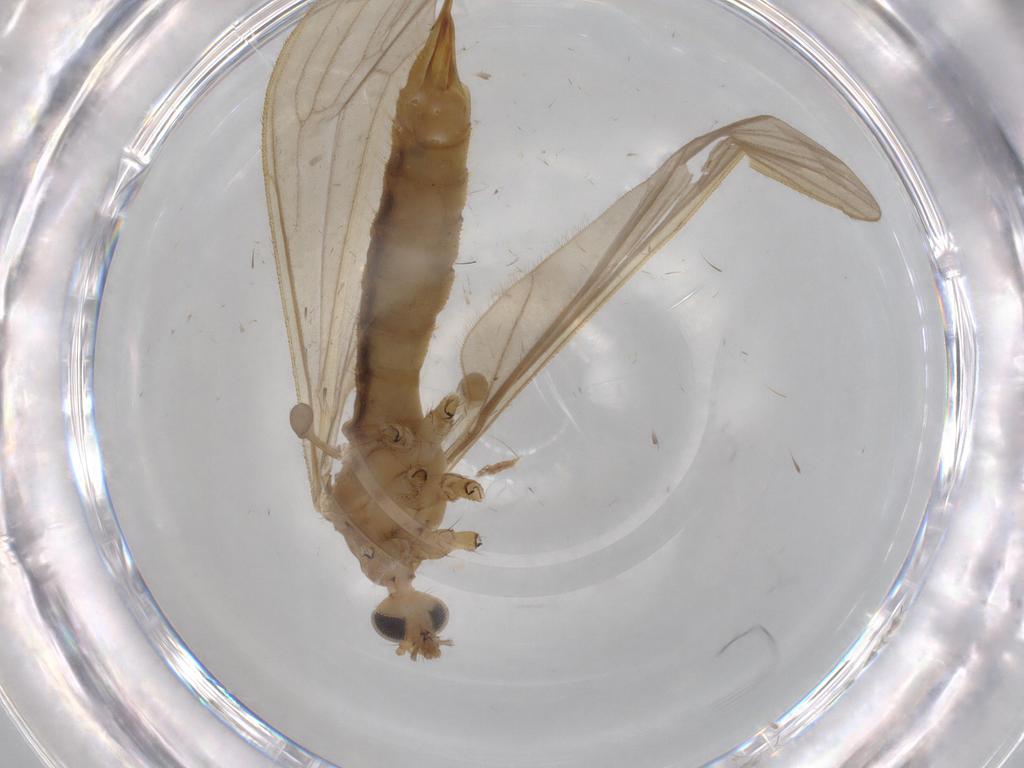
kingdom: Animalia
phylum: Arthropoda
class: Insecta
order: Diptera
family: Hybotidae
